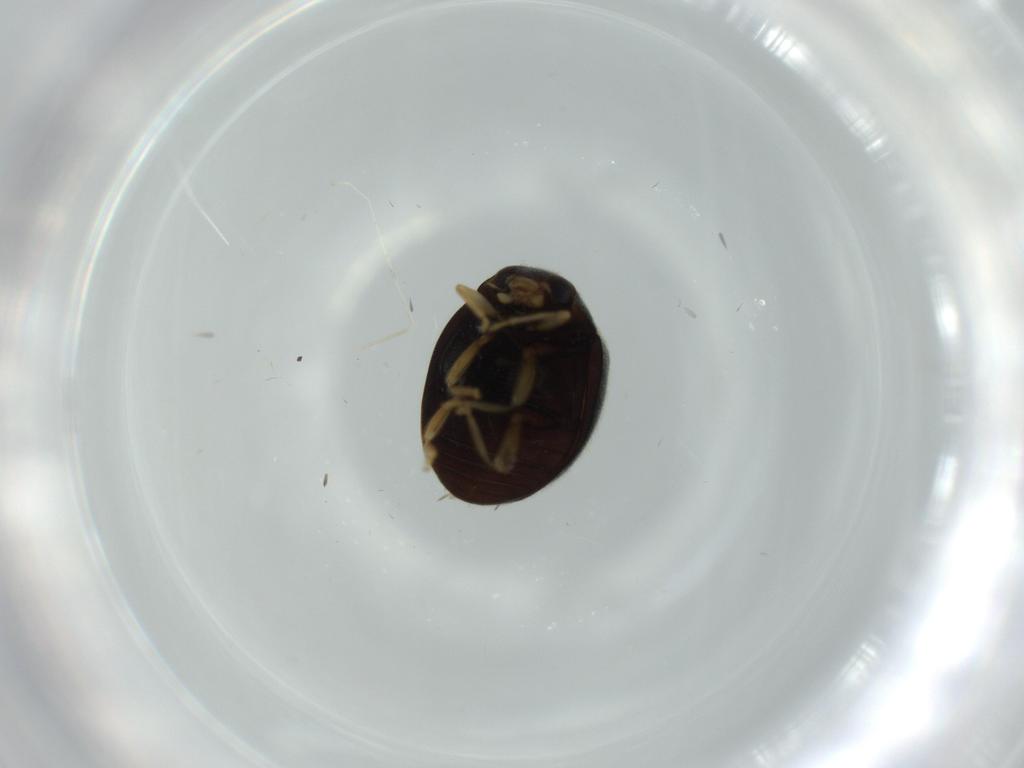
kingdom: Animalia
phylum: Arthropoda
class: Insecta
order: Coleoptera
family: Coccinellidae
